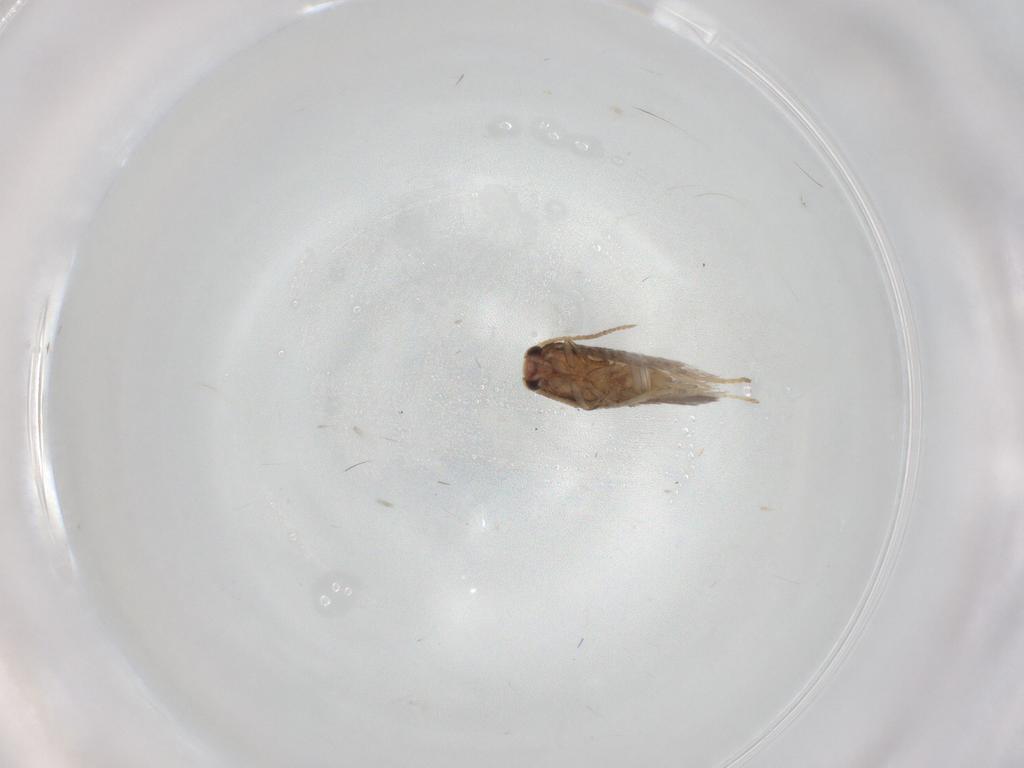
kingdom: Animalia
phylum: Arthropoda
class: Insecta
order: Lepidoptera
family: Nepticulidae
